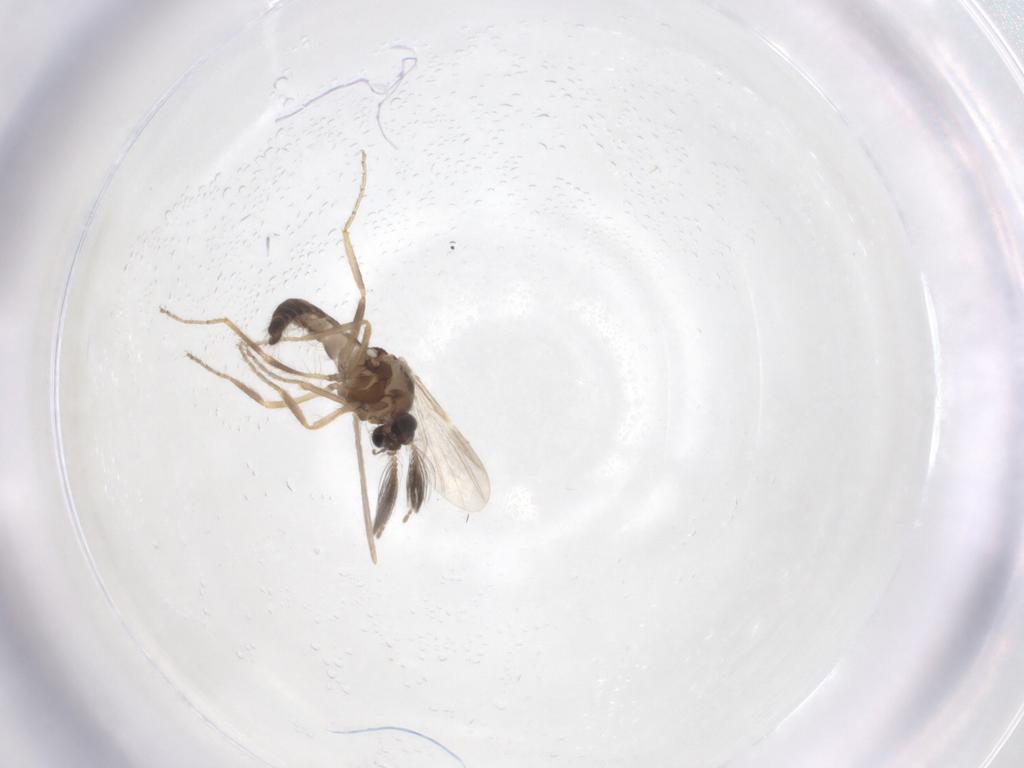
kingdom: Animalia
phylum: Arthropoda
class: Insecta
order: Diptera
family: Ceratopogonidae
